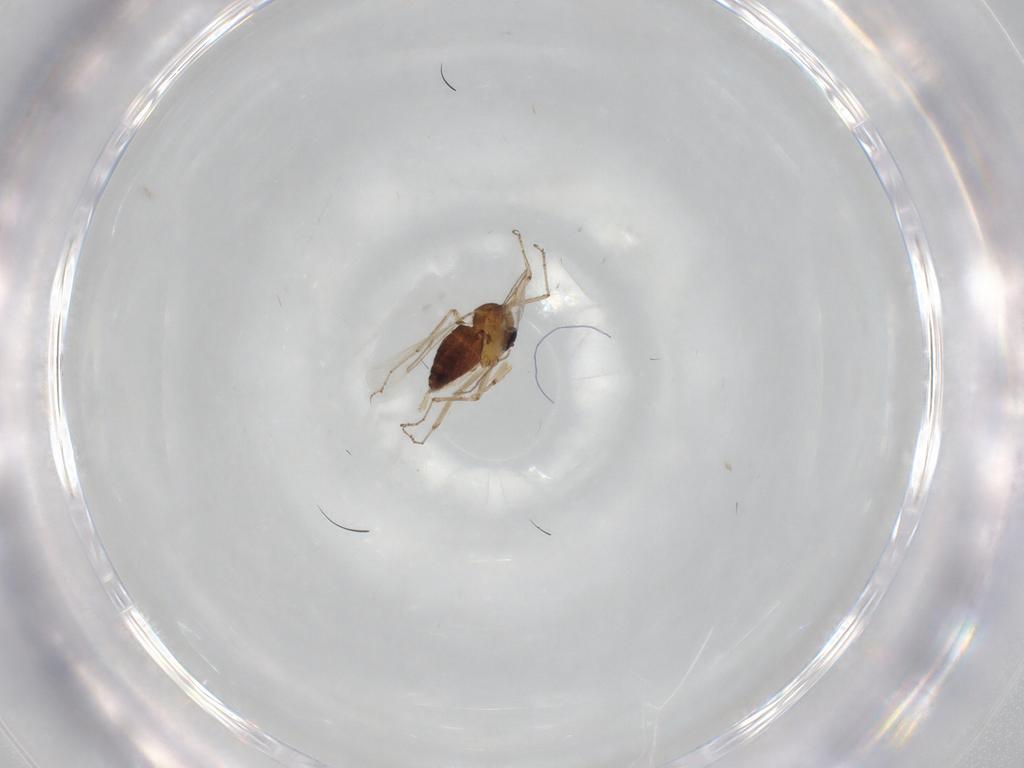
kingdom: Animalia
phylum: Arthropoda
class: Insecta
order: Diptera
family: Ceratopogonidae
